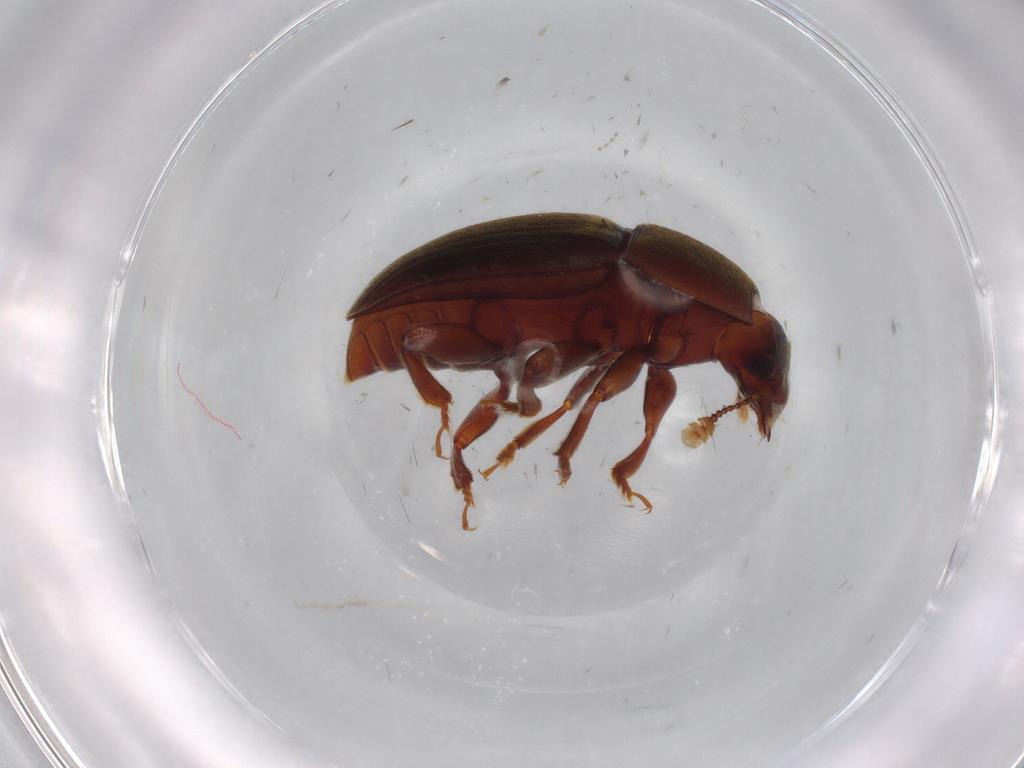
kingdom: Animalia
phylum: Arthropoda
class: Insecta
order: Coleoptera
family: Nitidulidae
